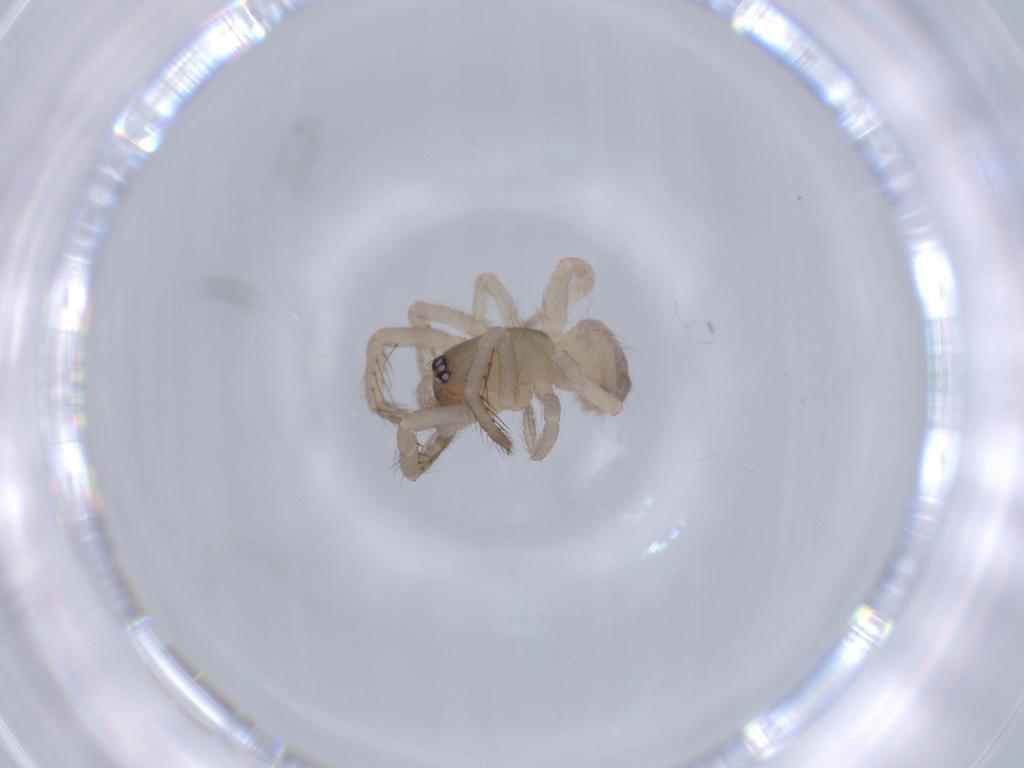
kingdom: Animalia
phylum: Arthropoda
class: Arachnida
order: Araneae
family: Segestriidae
